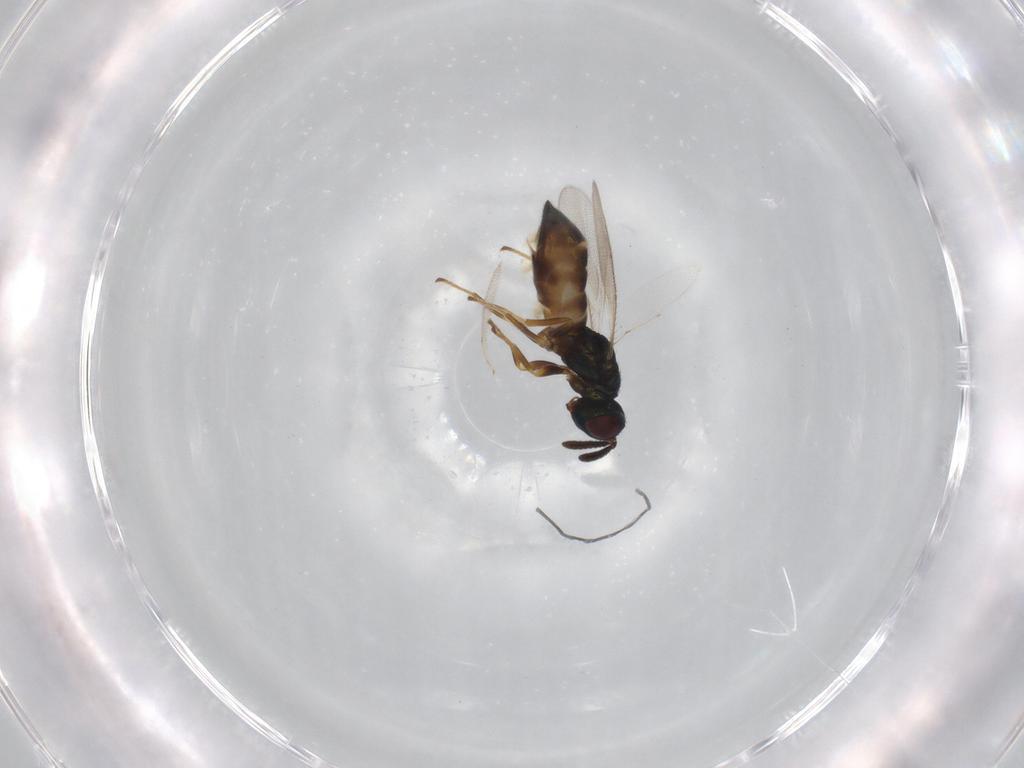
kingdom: Animalia
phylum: Arthropoda
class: Insecta
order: Hymenoptera
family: Pteromalidae
